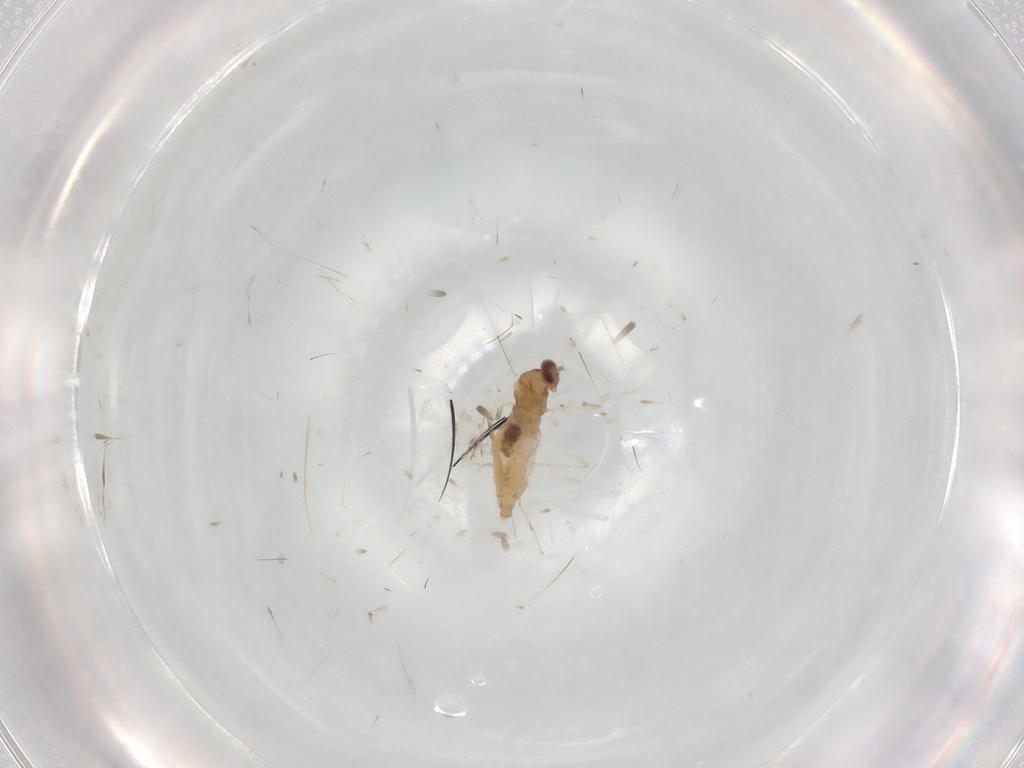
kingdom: Animalia
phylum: Arthropoda
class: Insecta
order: Diptera
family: Cecidomyiidae
